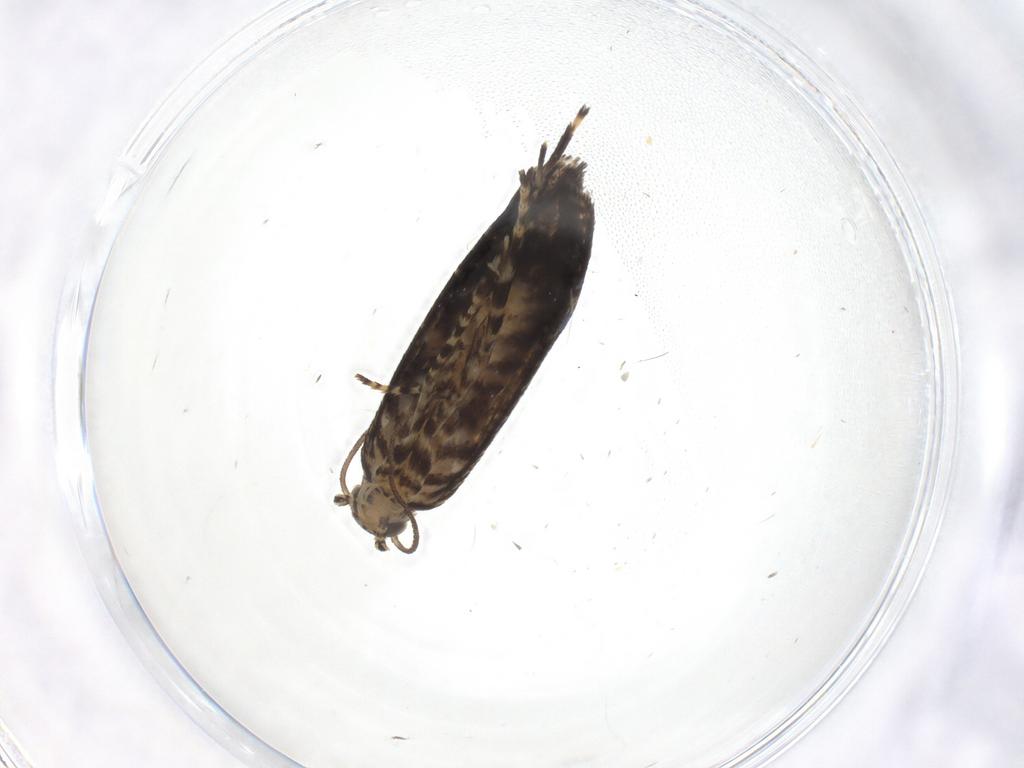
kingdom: Animalia
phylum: Arthropoda
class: Insecta
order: Lepidoptera
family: Geometridae
